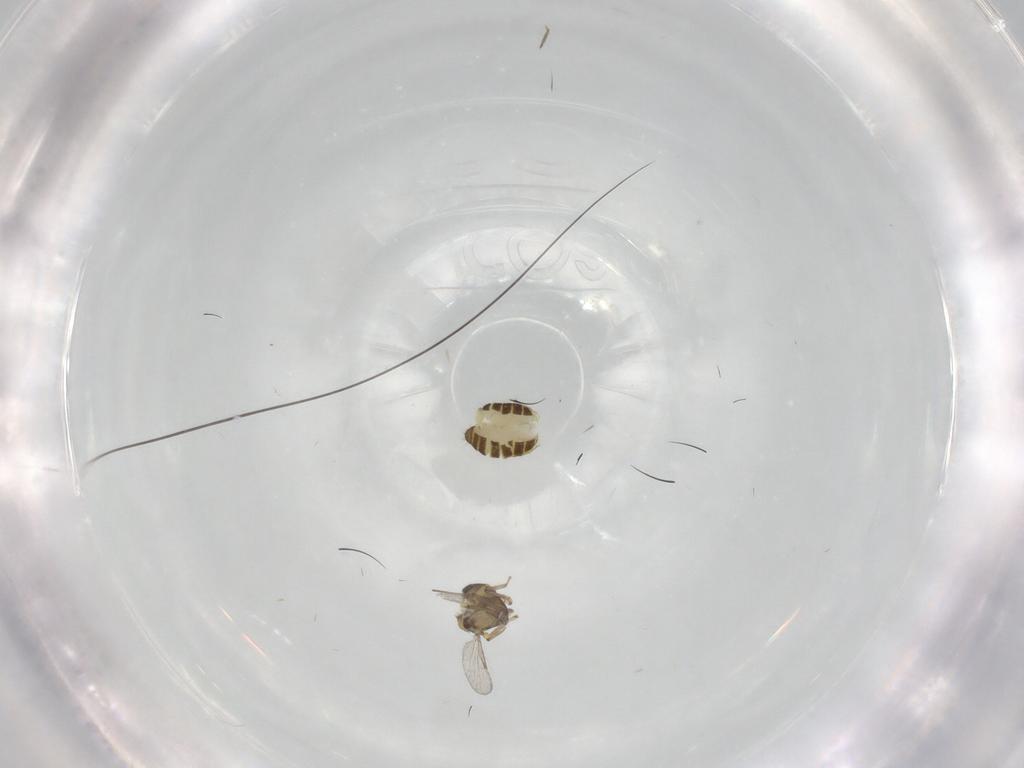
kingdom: Animalia
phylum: Arthropoda
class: Insecta
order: Diptera
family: Ceratopogonidae
